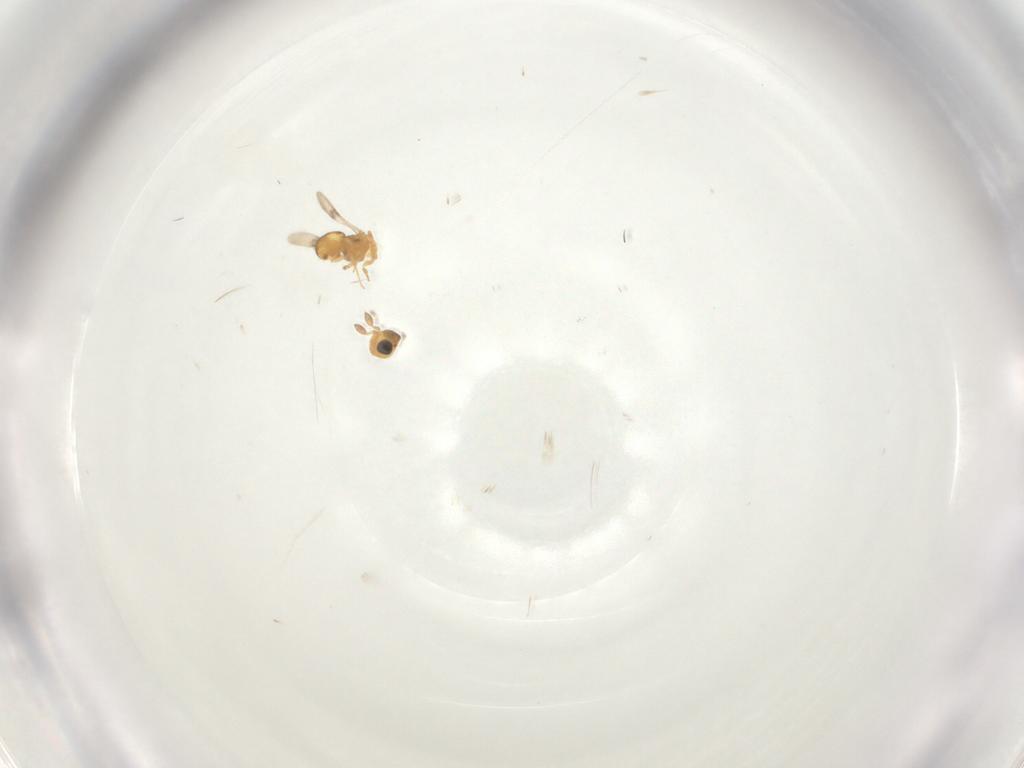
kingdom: Animalia
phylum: Arthropoda
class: Insecta
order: Hymenoptera
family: Scelionidae
